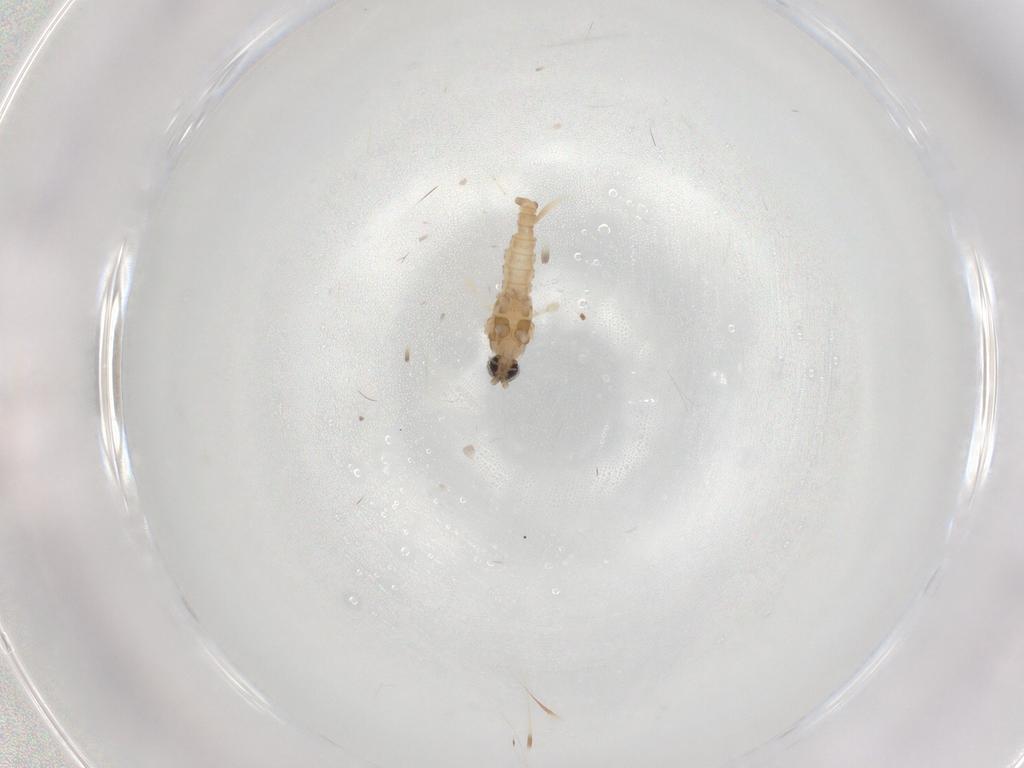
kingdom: Animalia
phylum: Arthropoda
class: Insecta
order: Diptera
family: Cecidomyiidae
